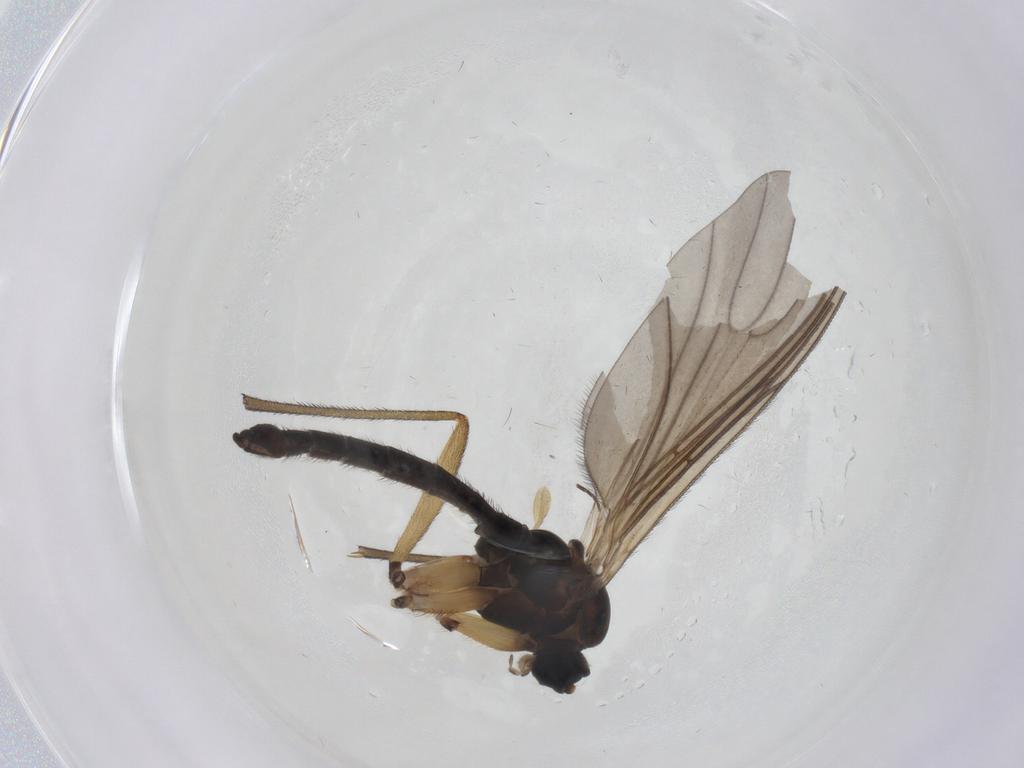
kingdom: Animalia
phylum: Arthropoda
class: Insecta
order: Diptera
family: Sciaridae
